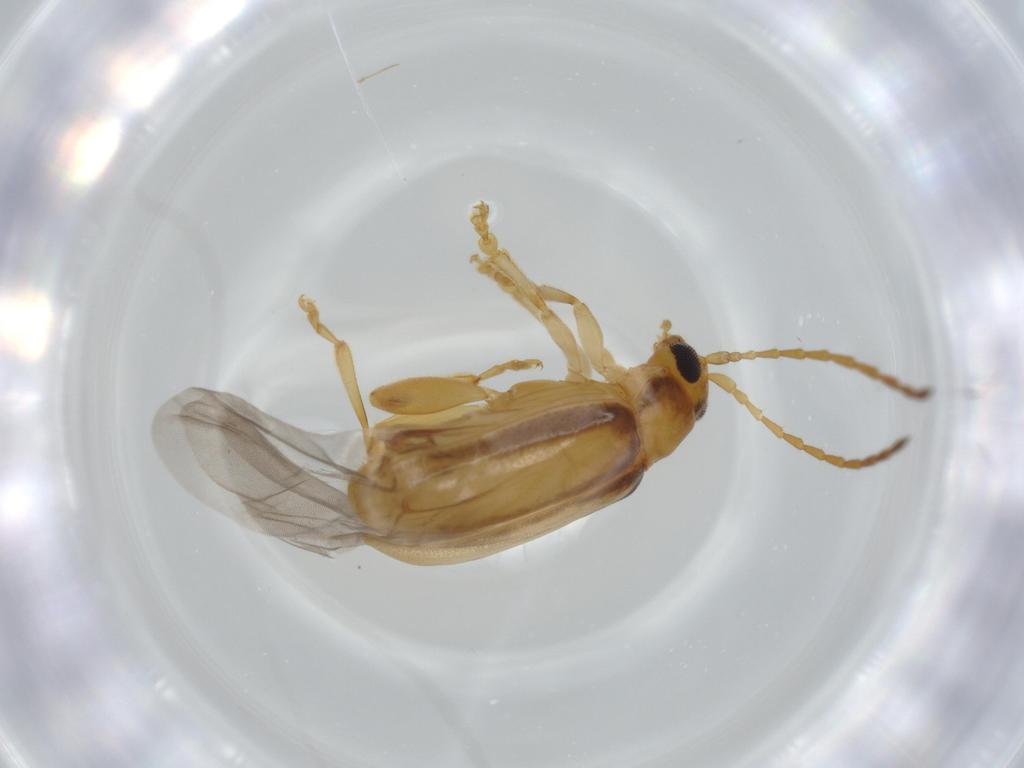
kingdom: Animalia
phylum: Arthropoda
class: Insecta
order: Coleoptera
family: Chrysomelidae
